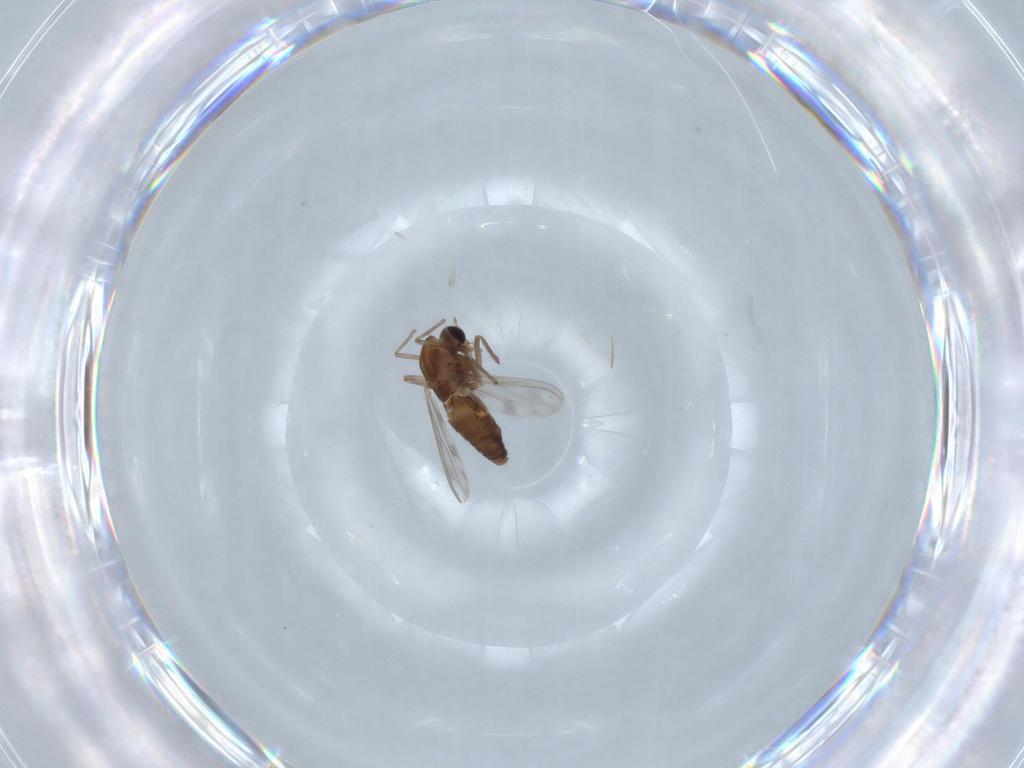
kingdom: Animalia
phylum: Arthropoda
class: Insecta
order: Diptera
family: Chironomidae
